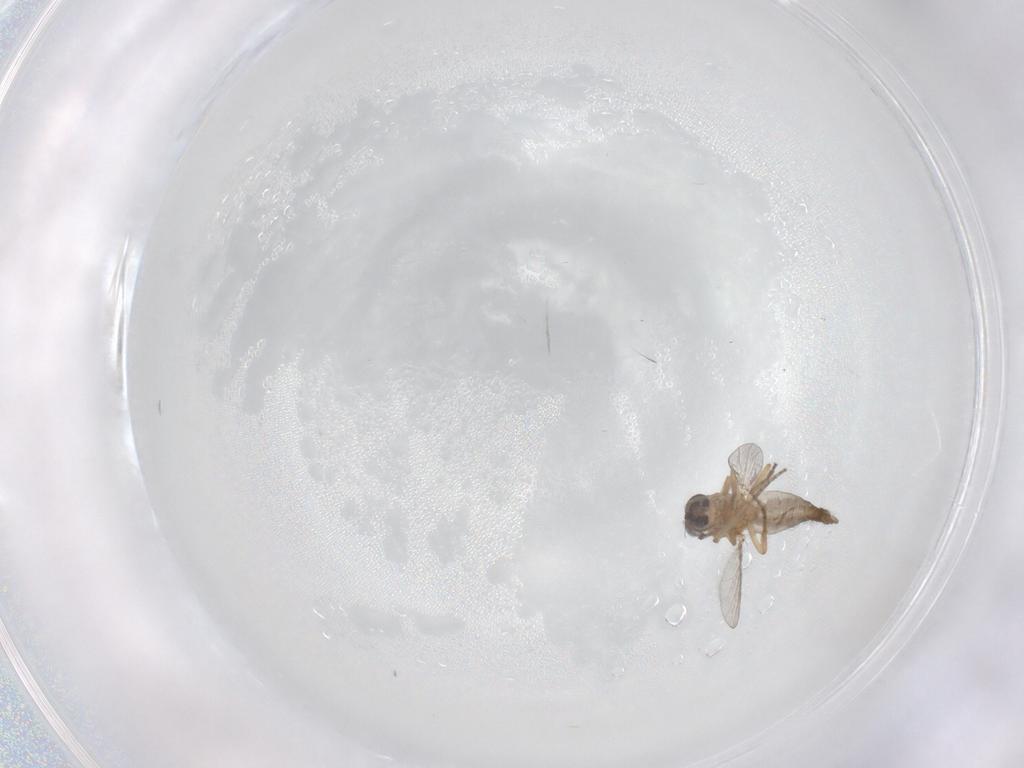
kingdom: Animalia
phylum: Arthropoda
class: Insecta
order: Diptera
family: Ceratopogonidae
